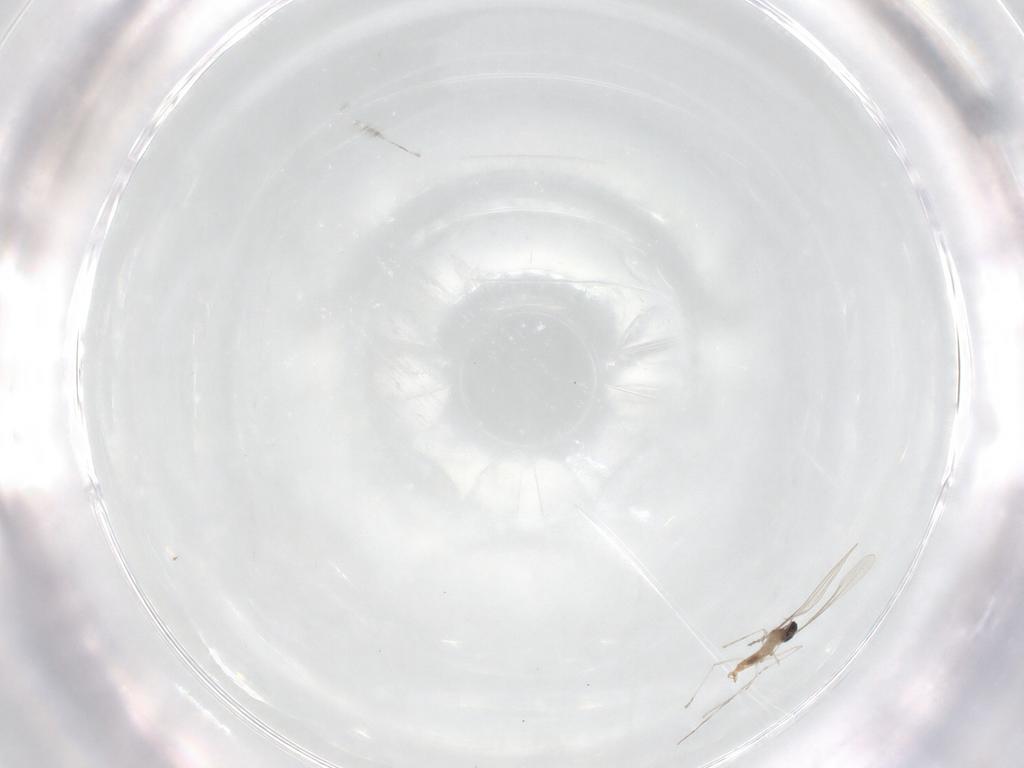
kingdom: Animalia
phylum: Arthropoda
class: Insecta
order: Diptera
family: Cecidomyiidae
